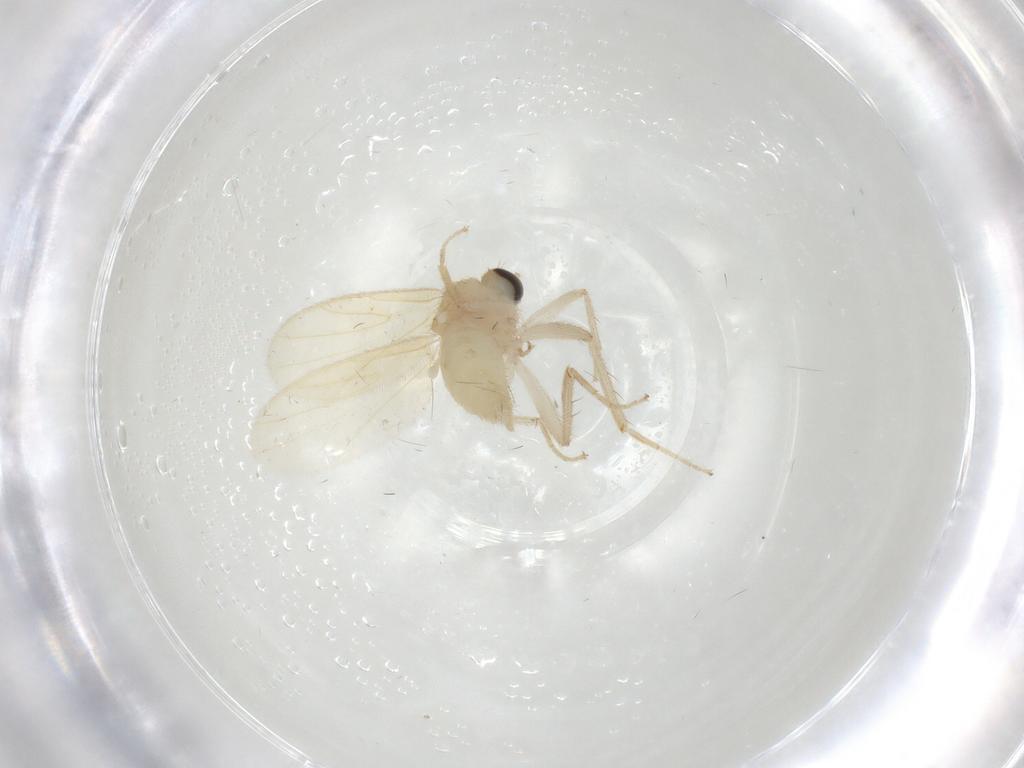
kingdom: Animalia
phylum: Arthropoda
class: Insecta
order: Diptera
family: Hybotidae
